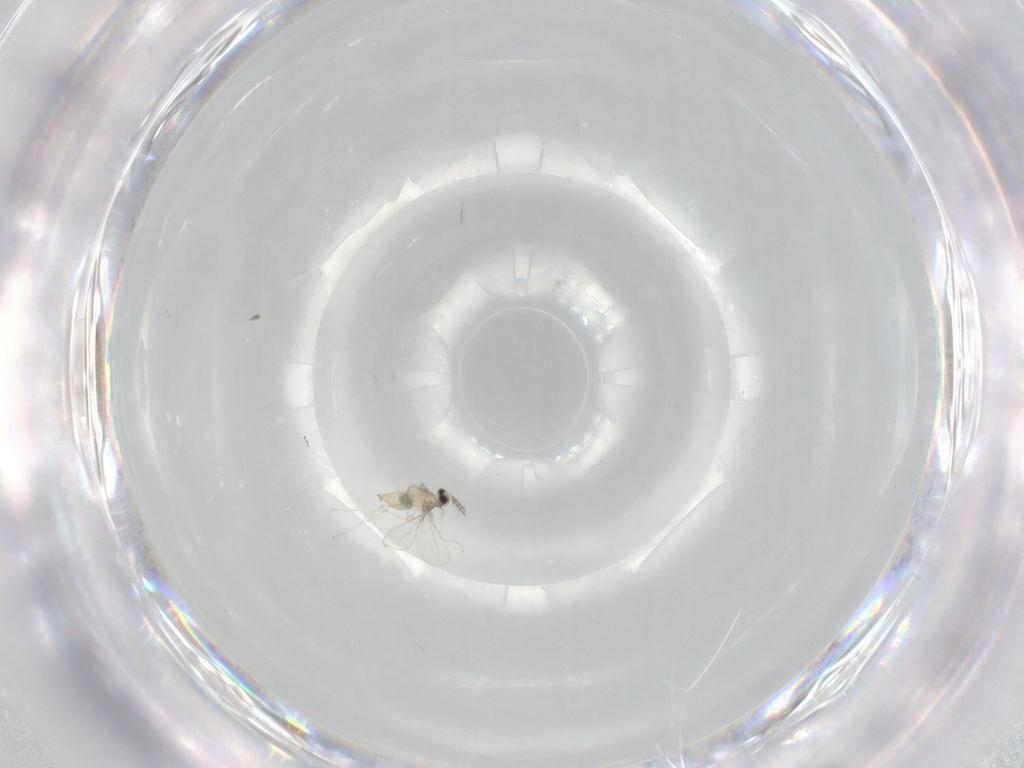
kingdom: Animalia
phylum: Arthropoda
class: Insecta
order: Diptera
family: Cecidomyiidae
